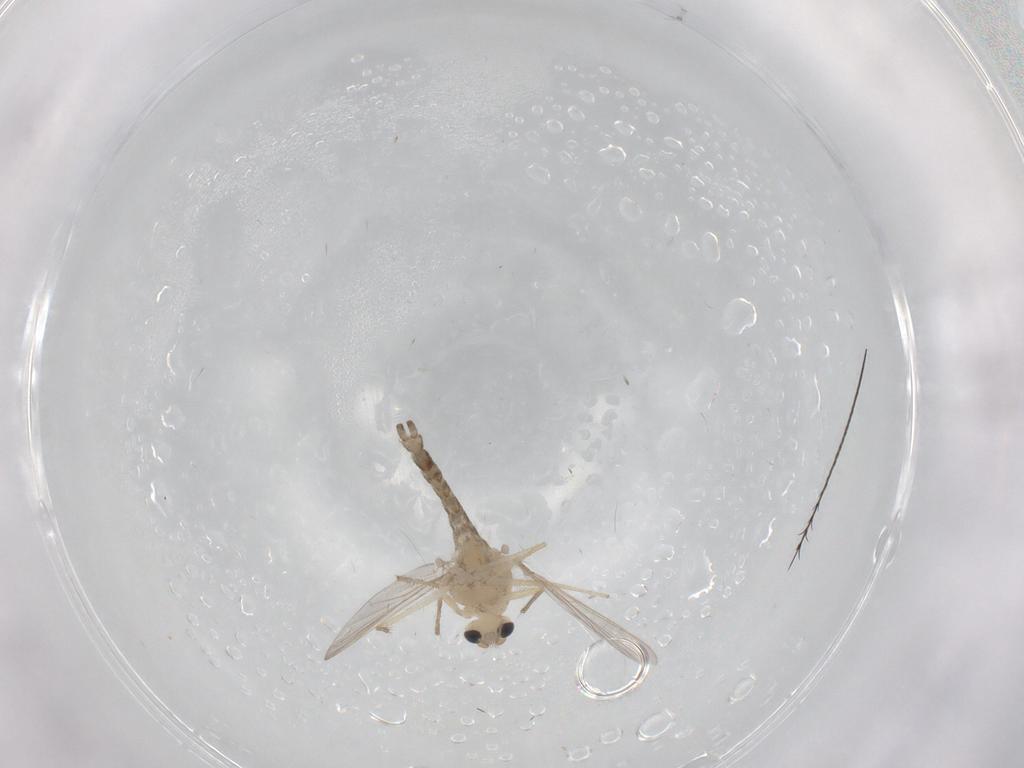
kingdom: Animalia
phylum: Arthropoda
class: Insecta
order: Diptera
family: Chironomidae
